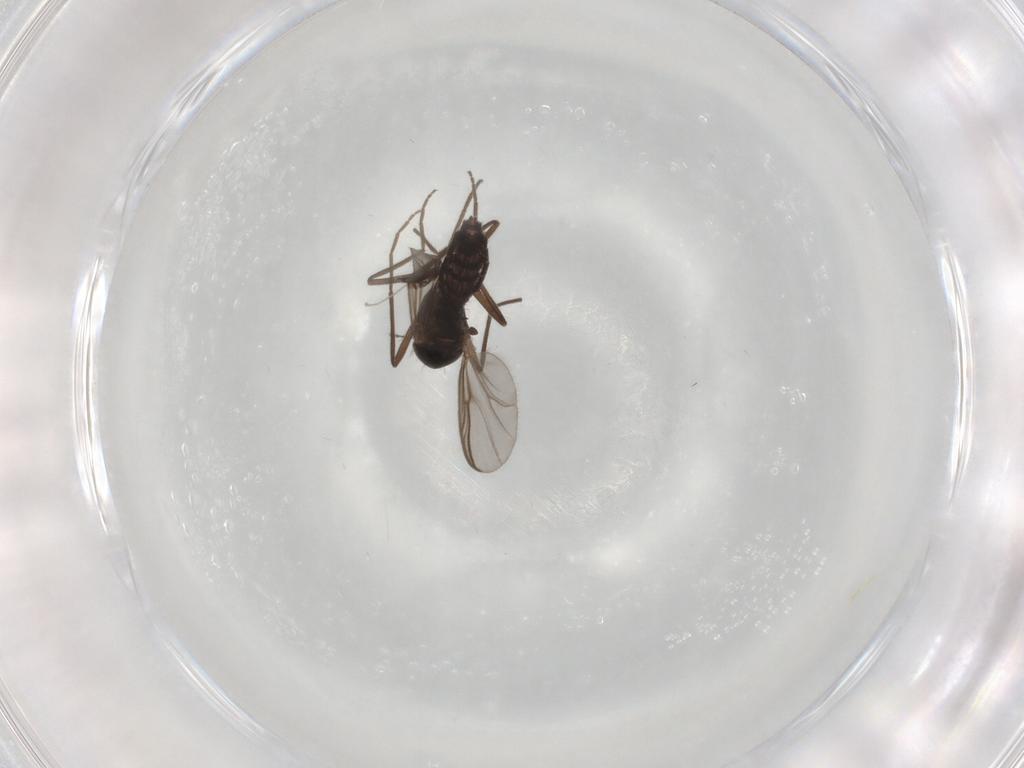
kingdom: Animalia
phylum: Arthropoda
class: Insecta
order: Diptera
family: Chironomidae
